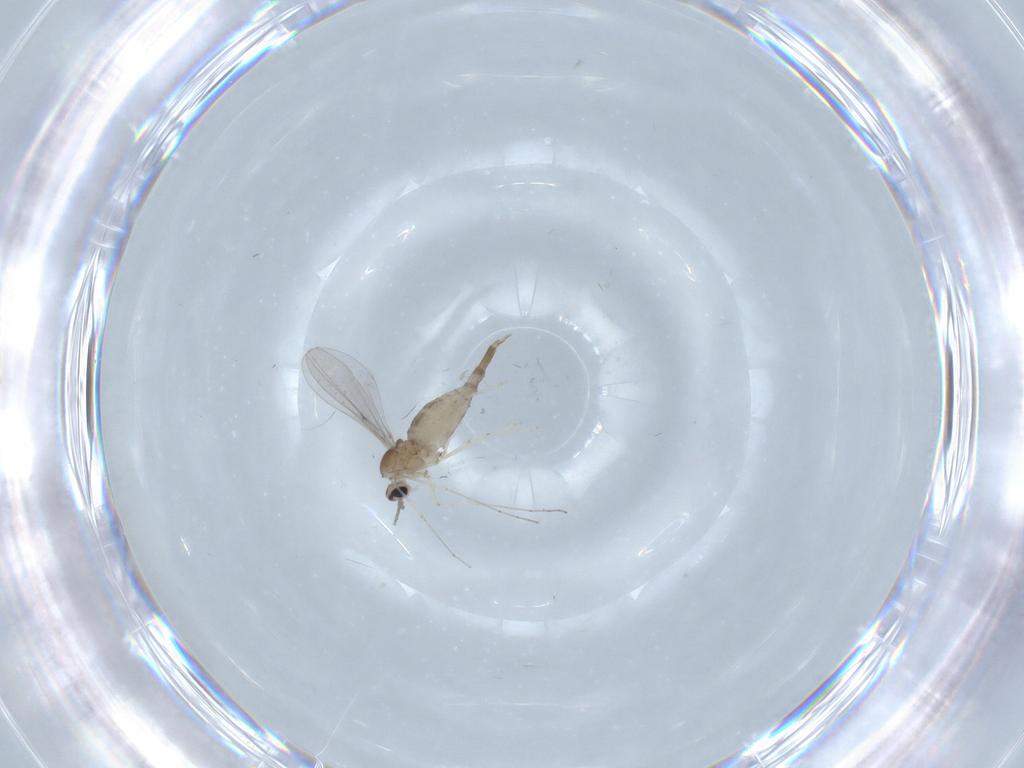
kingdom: Animalia
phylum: Arthropoda
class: Insecta
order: Diptera
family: Cecidomyiidae
